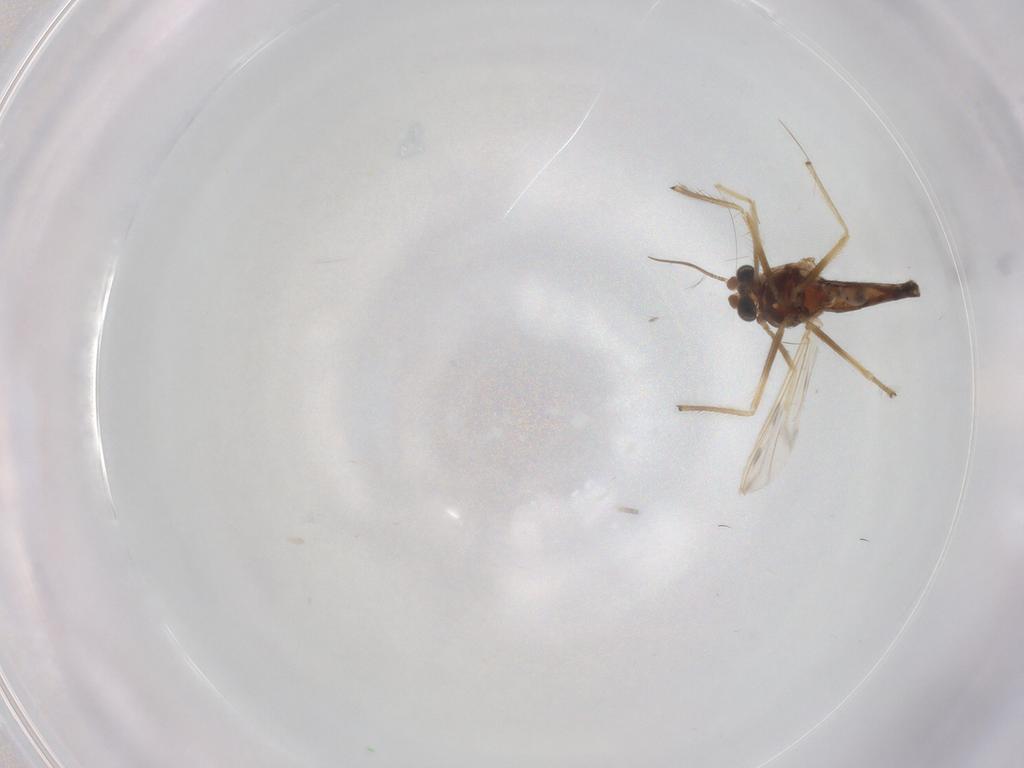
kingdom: Animalia
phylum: Arthropoda
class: Insecta
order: Diptera
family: Chironomidae
